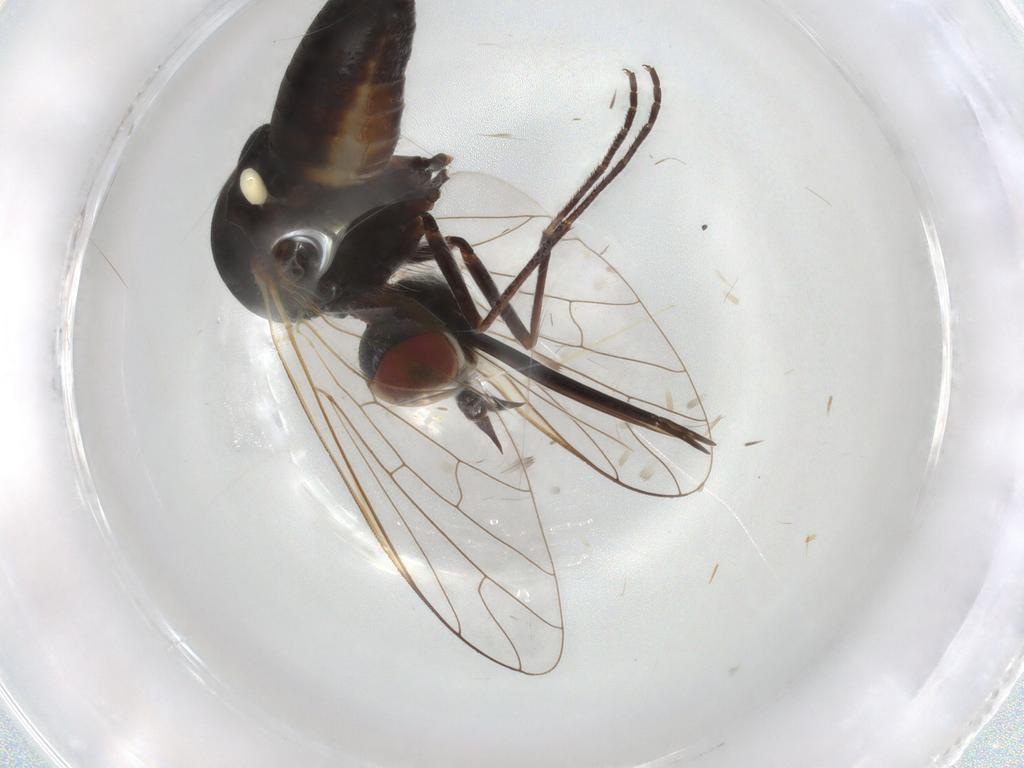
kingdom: Animalia
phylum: Arthropoda
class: Insecta
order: Diptera
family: Bombyliidae
